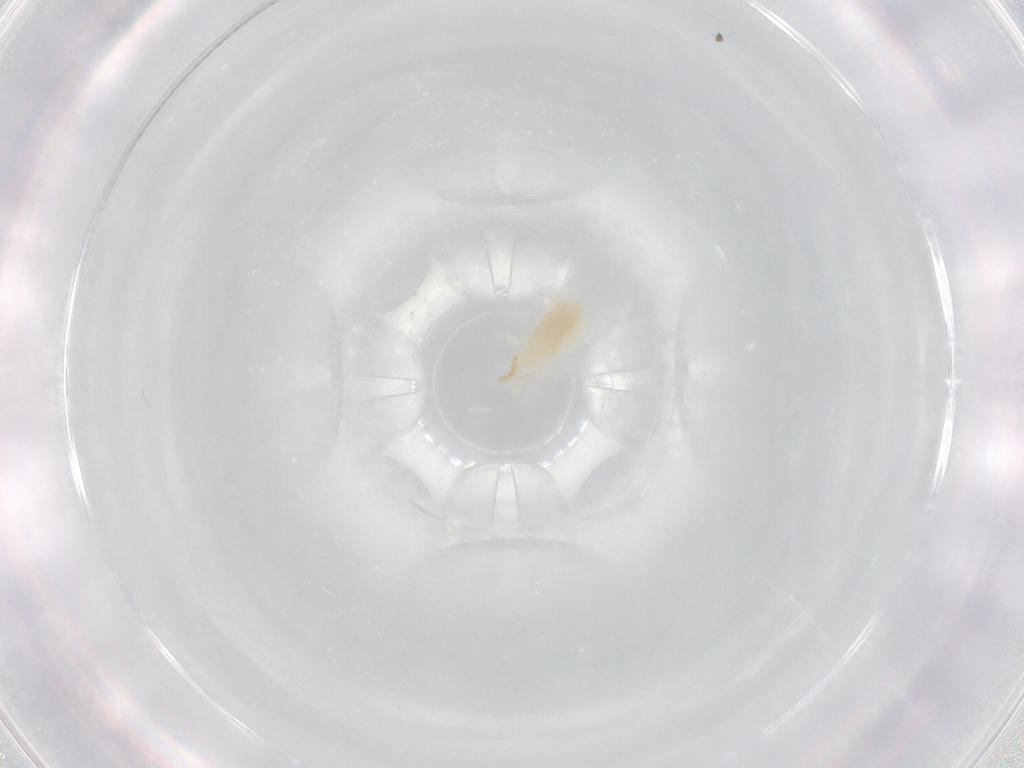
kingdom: Animalia
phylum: Arthropoda
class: Arachnida
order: Trombidiformes
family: Rhagidiidae
